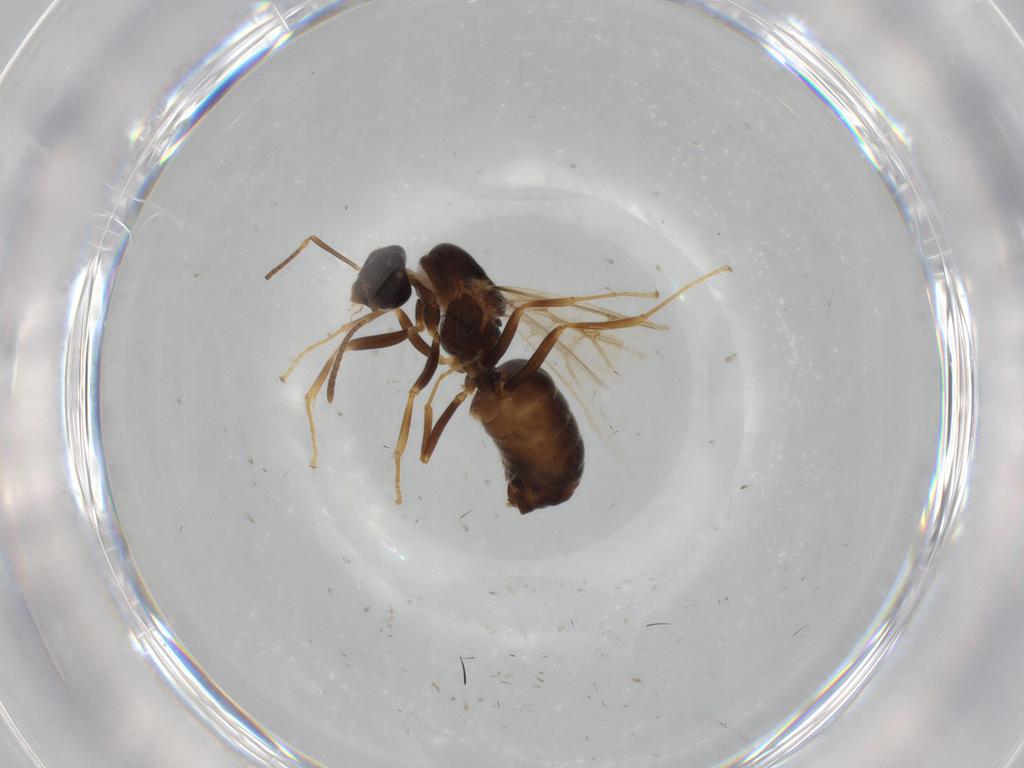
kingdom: Animalia
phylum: Arthropoda
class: Insecta
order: Hymenoptera
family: Formicidae
